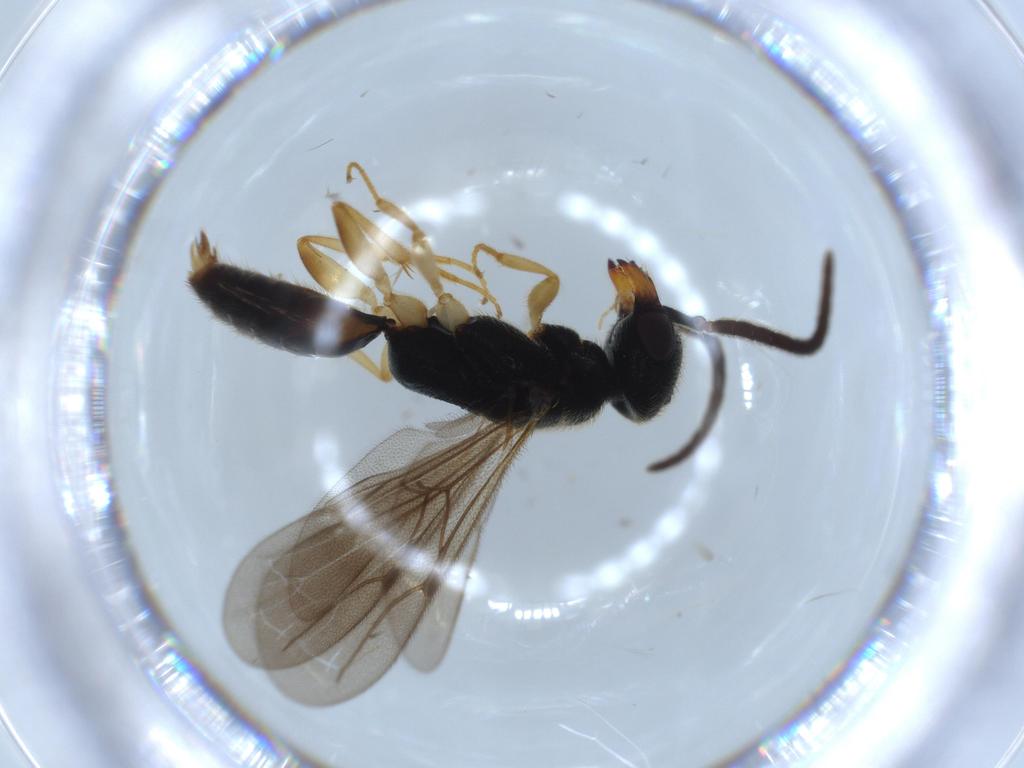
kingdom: Animalia
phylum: Arthropoda
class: Insecta
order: Hymenoptera
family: Bethylidae
